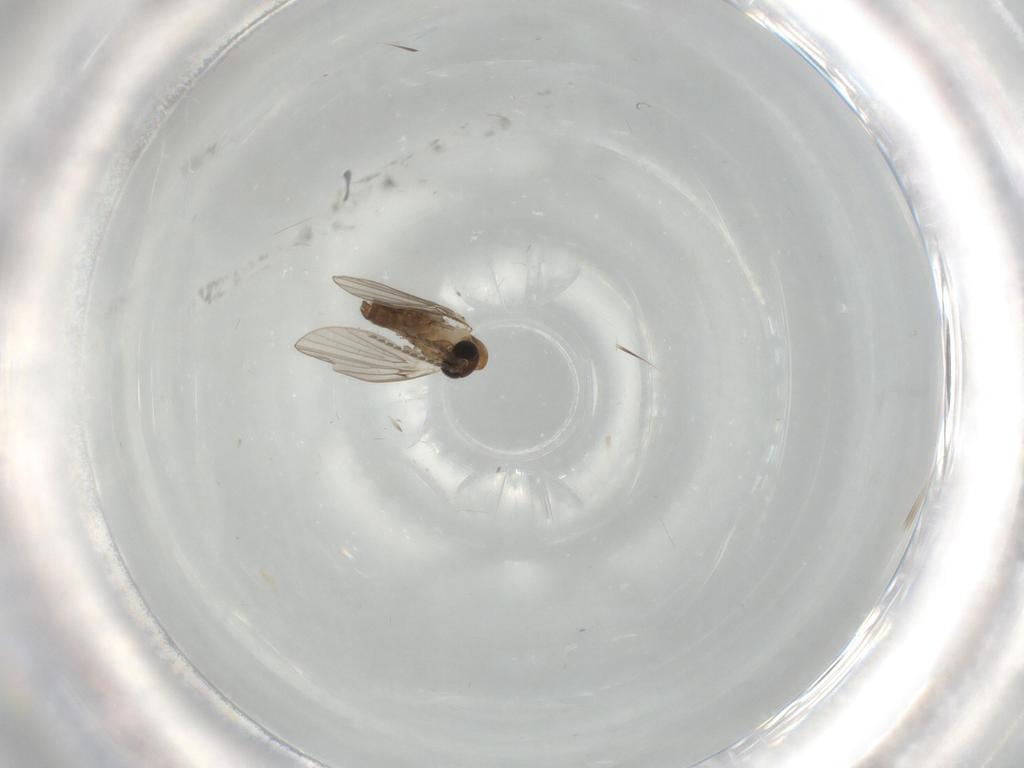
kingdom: Animalia
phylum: Arthropoda
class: Insecta
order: Diptera
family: Psychodidae
